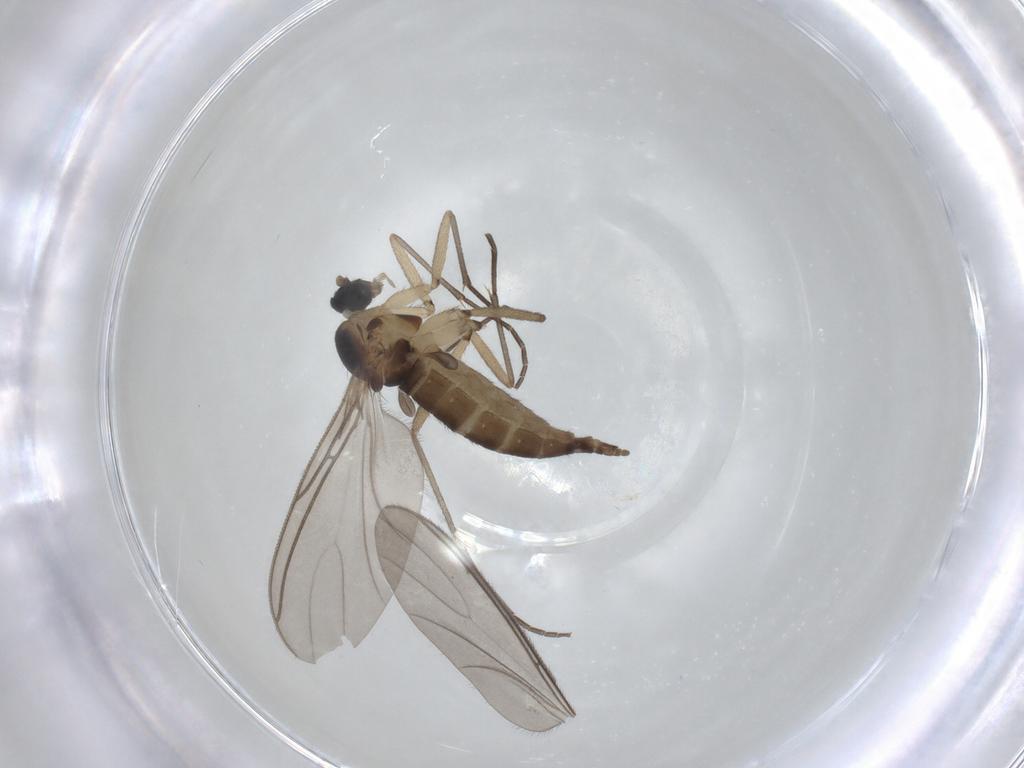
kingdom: Animalia
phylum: Arthropoda
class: Insecta
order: Diptera
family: Sciaridae
